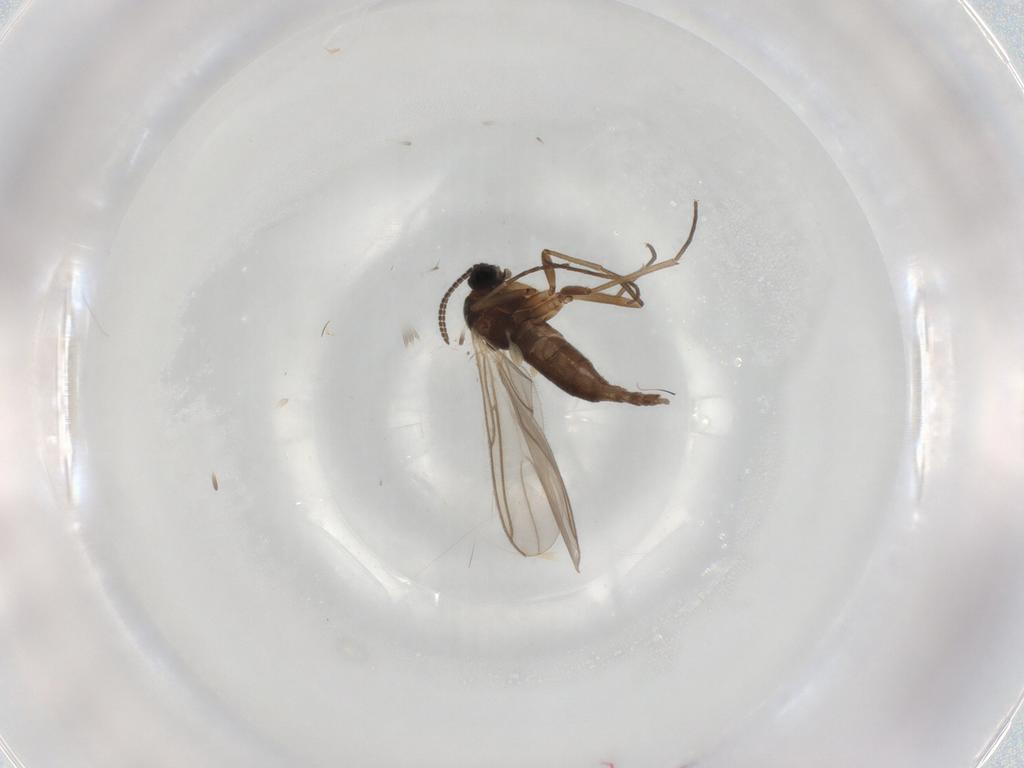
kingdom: Animalia
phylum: Arthropoda
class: Insecta
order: Diptera
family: Sciaridae
